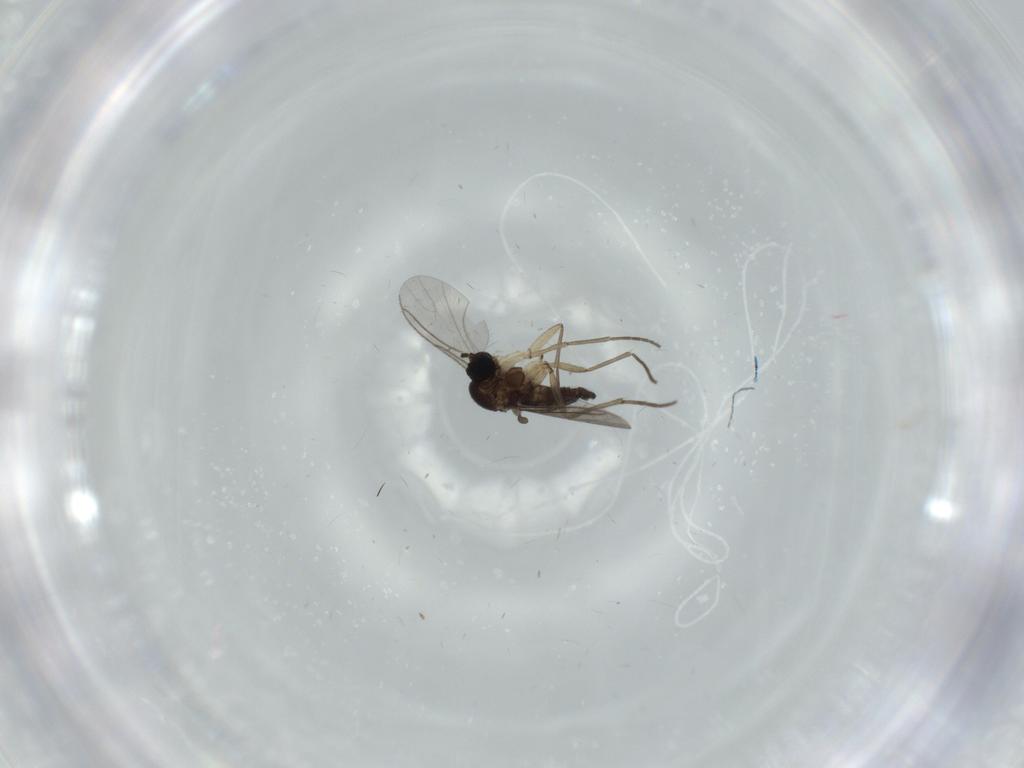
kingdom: Animalia
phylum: Arthropoda
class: Insecta
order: Diptera
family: Sciaridae
